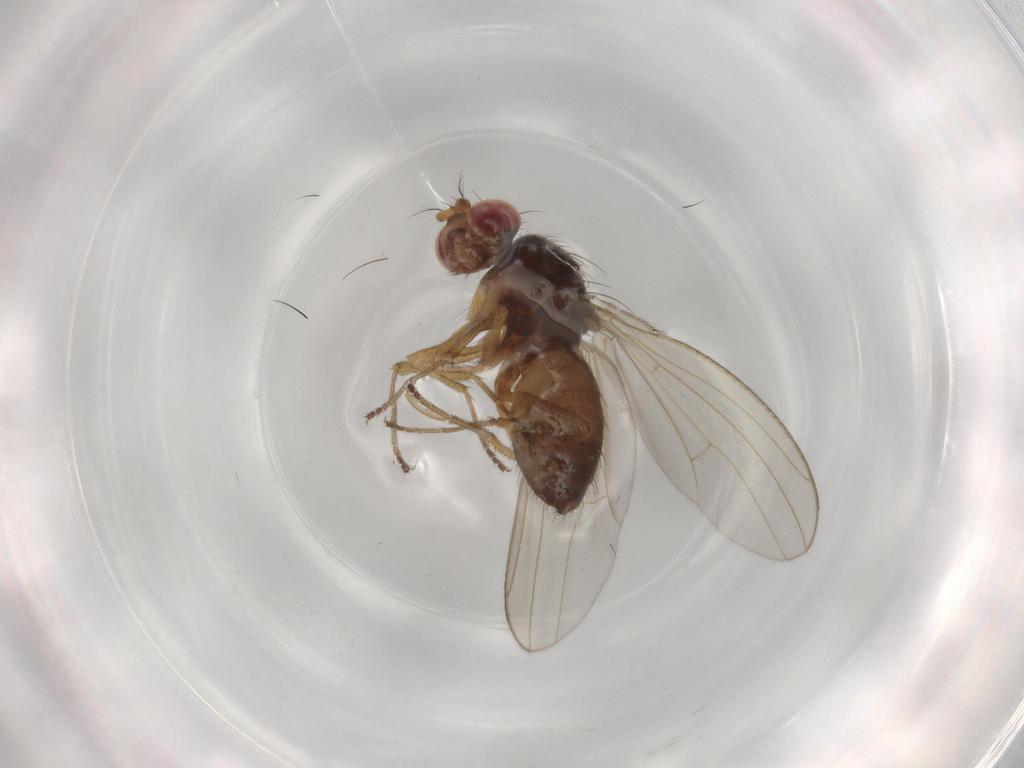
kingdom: Animalia
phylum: Arthropoda
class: Insecta
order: Diptera
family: Drosophilidae
